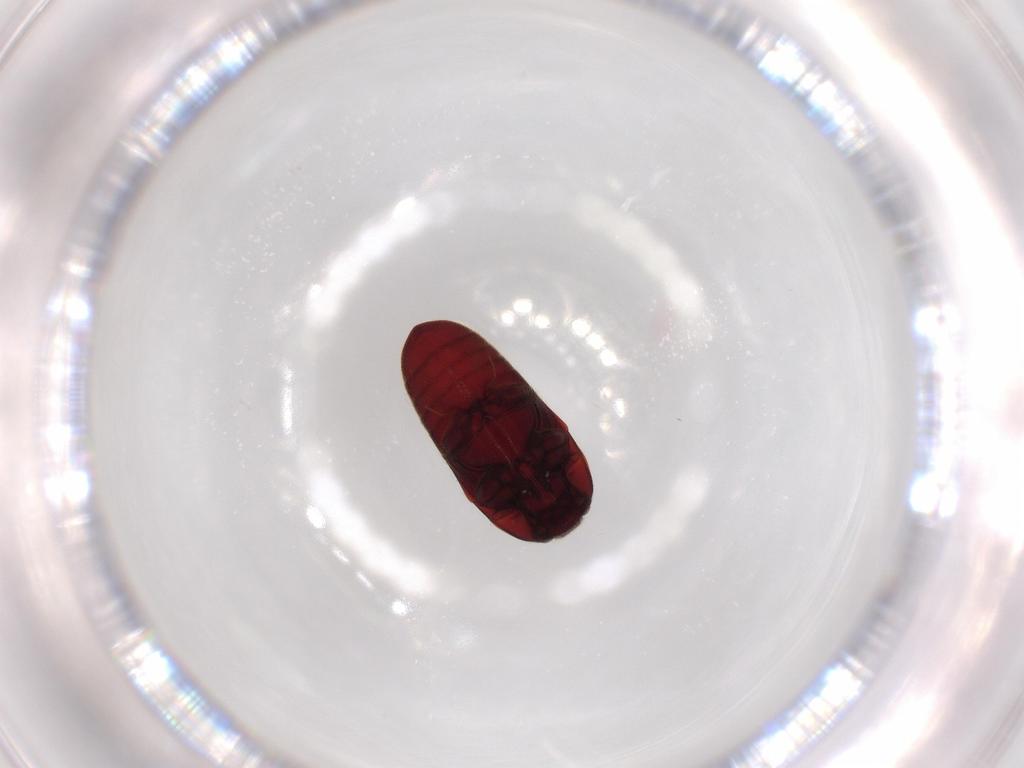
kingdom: Animalia
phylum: Arthropoda
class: Insecta
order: Coleoptera
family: Throscidae
